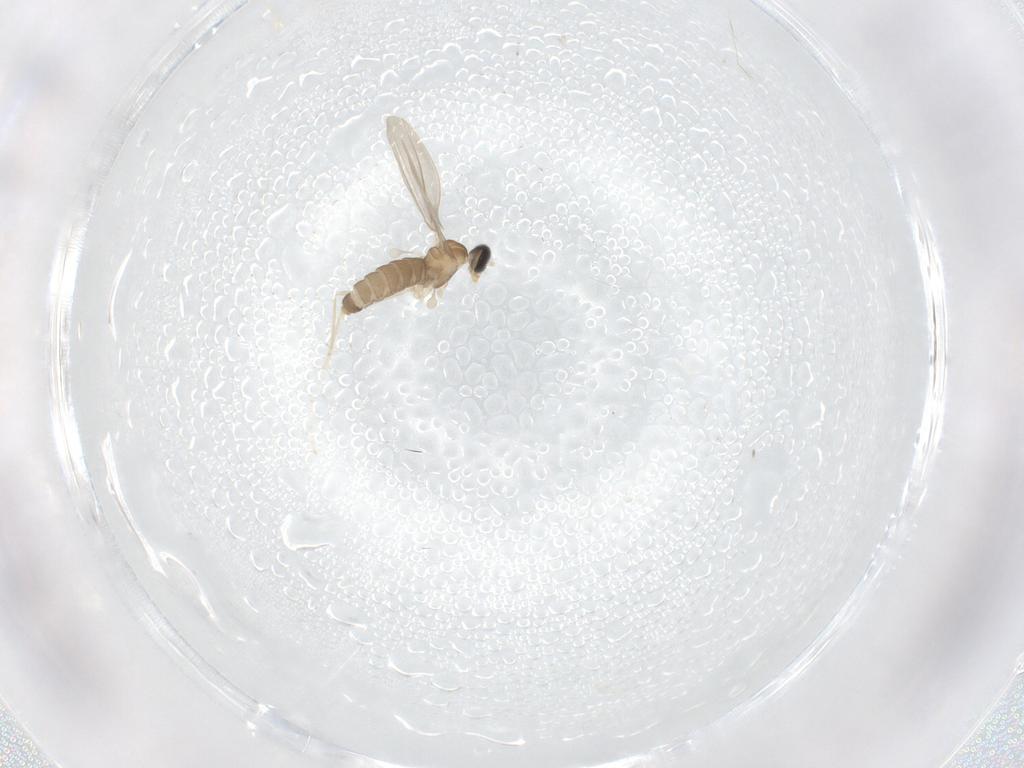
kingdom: Animalia
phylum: Arthropoda
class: Insecta
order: Diptera
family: Cecidomyiidae
